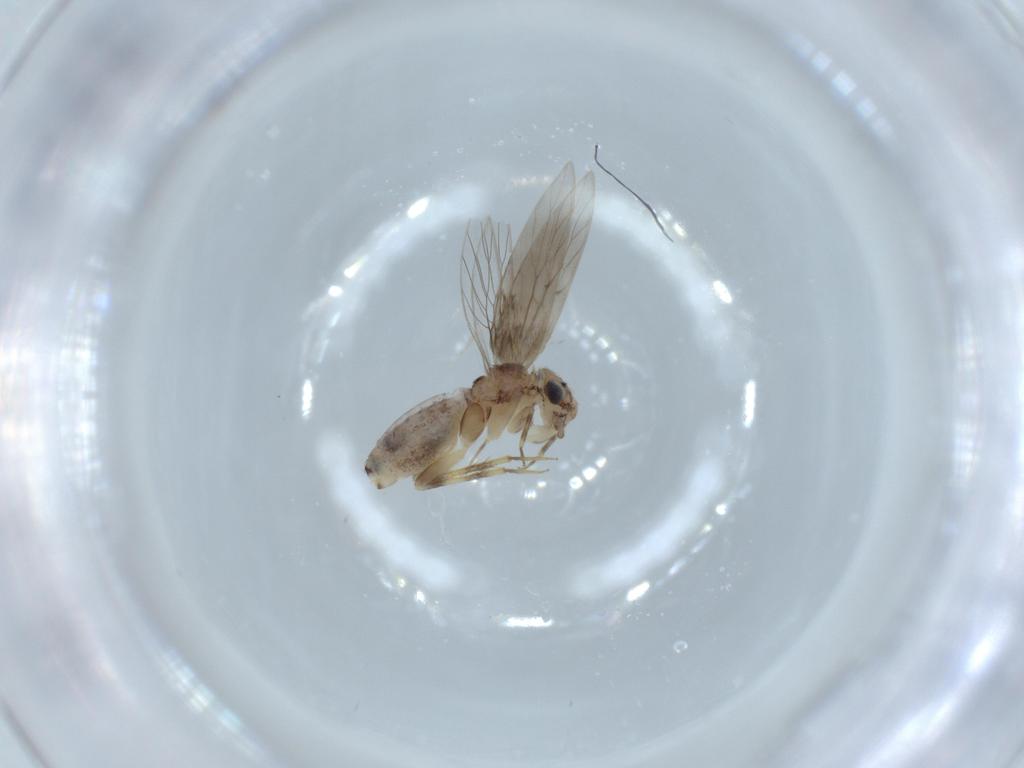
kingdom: Animalia
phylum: Arthropoda
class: Insecta
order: Psocodea
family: Lepidopsocidae
